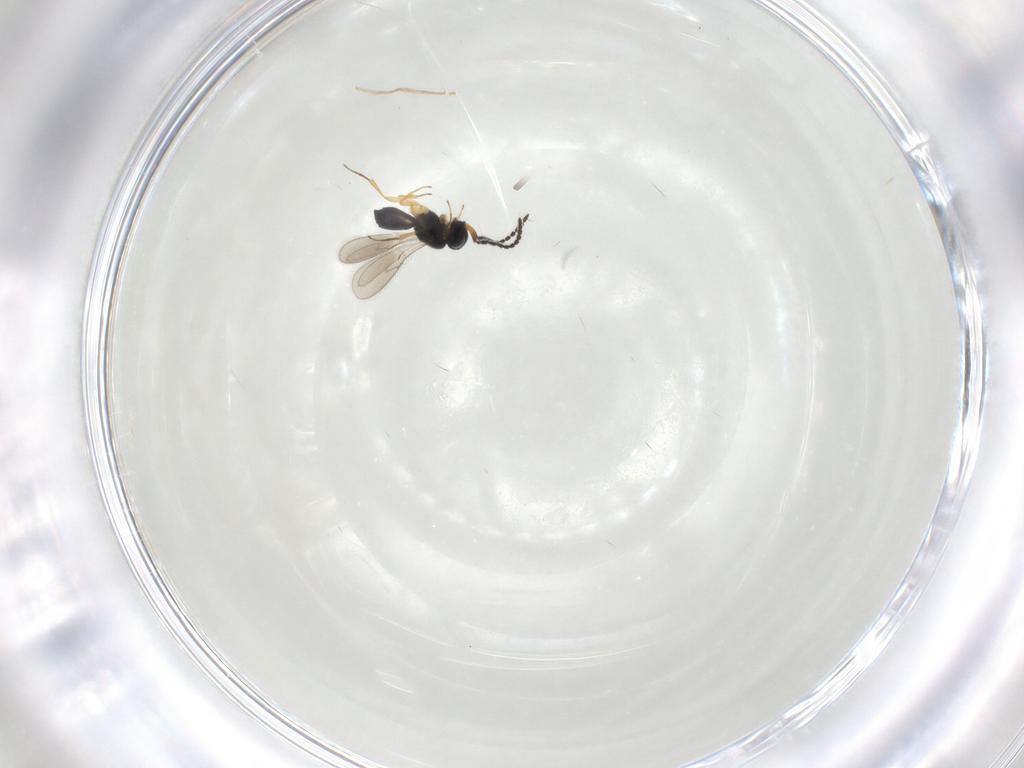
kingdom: Animalia
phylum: Arthropoda
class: Insecta
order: Hymenoptera
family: Scelionidae
